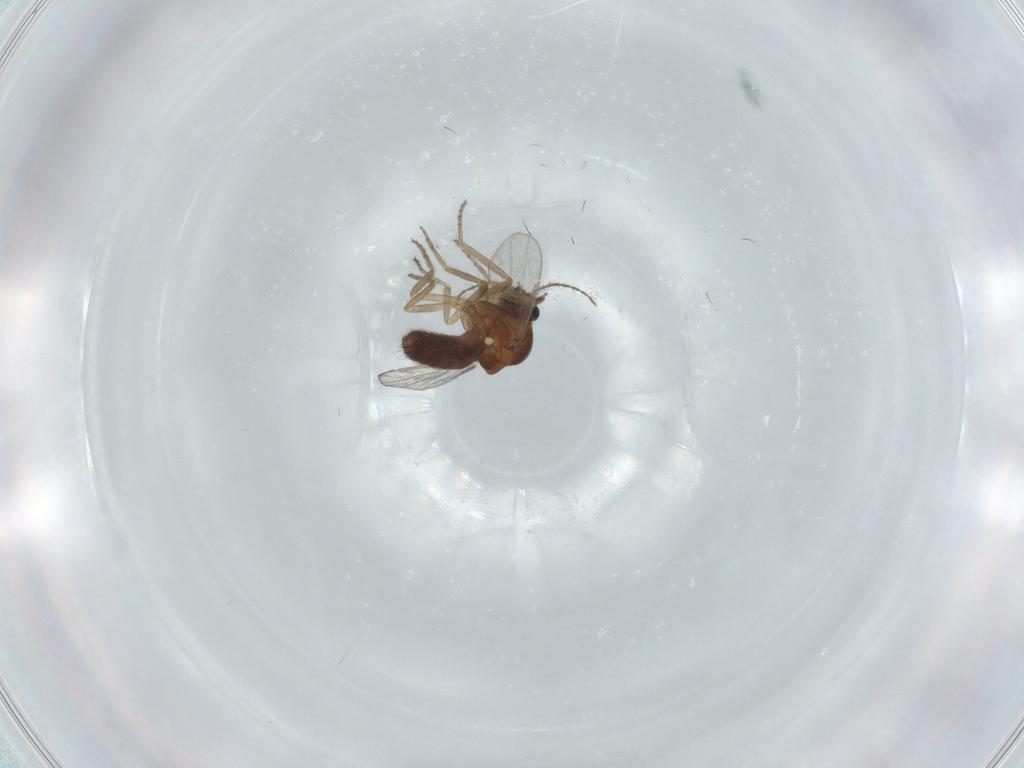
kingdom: Animalia
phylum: Arthropoda
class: Insecta
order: Diptera
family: Ceratopogonidae
